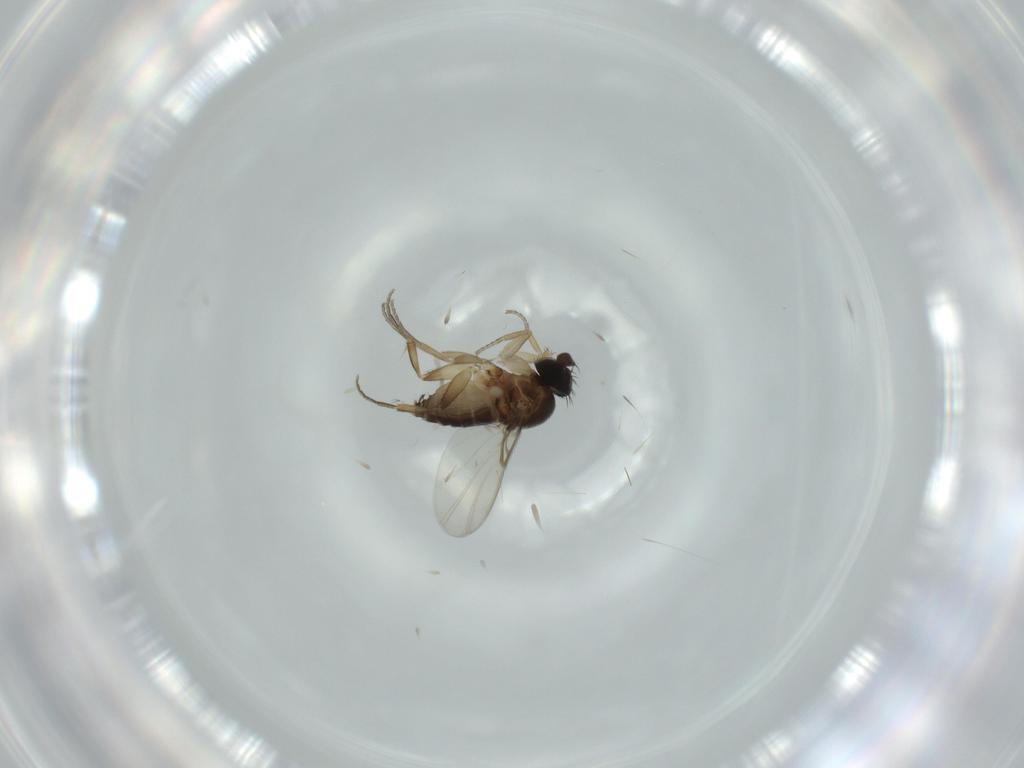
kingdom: Animalia
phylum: Arthropoda
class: Insecta
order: Diptera
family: Phoridae
